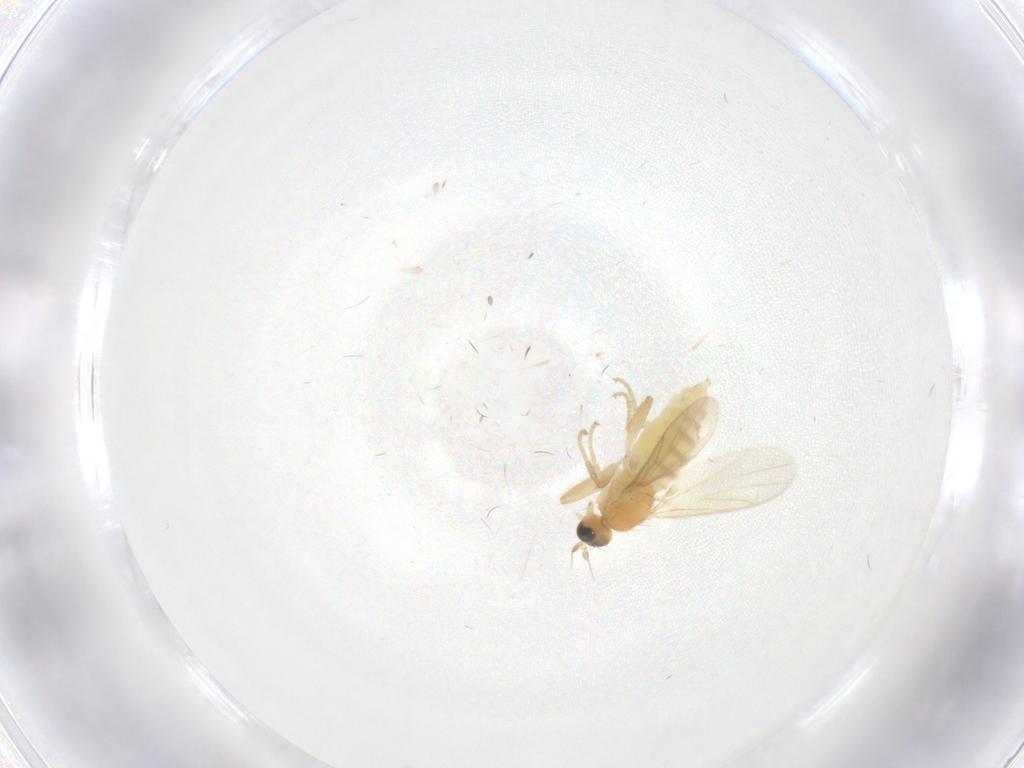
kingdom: Animalia
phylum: Arthropoda
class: Insecta
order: Diptera
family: Hybotidae
